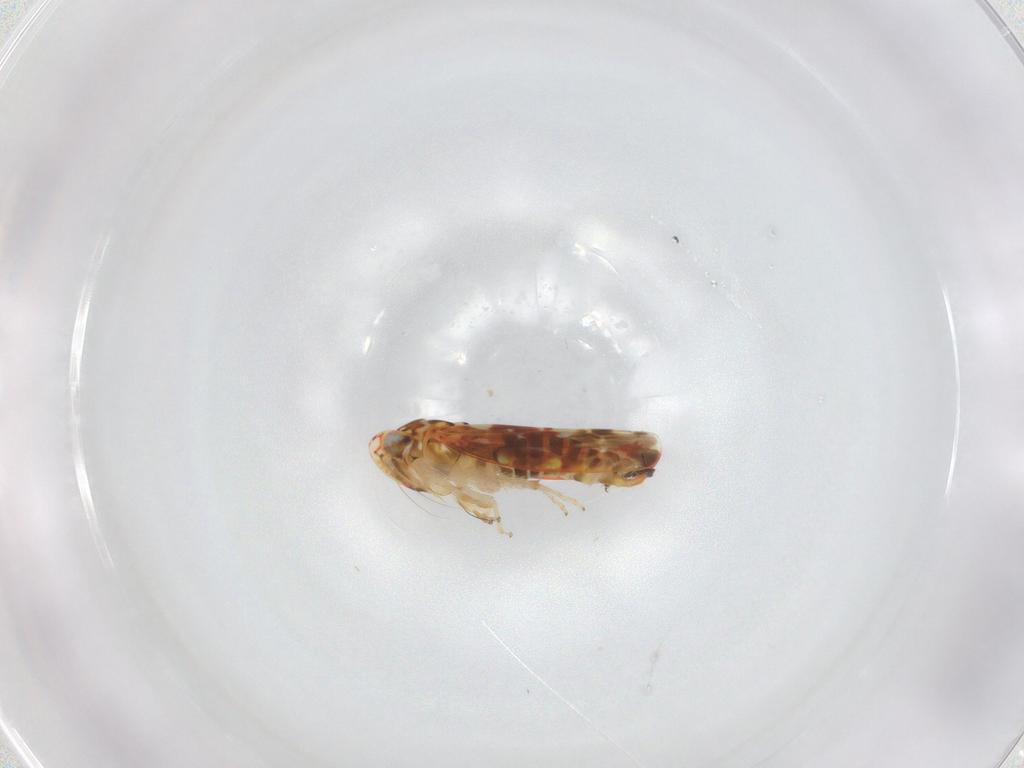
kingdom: Animalia
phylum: Arthropoda
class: Insecta
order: Hemiptera
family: Cicadellidae
